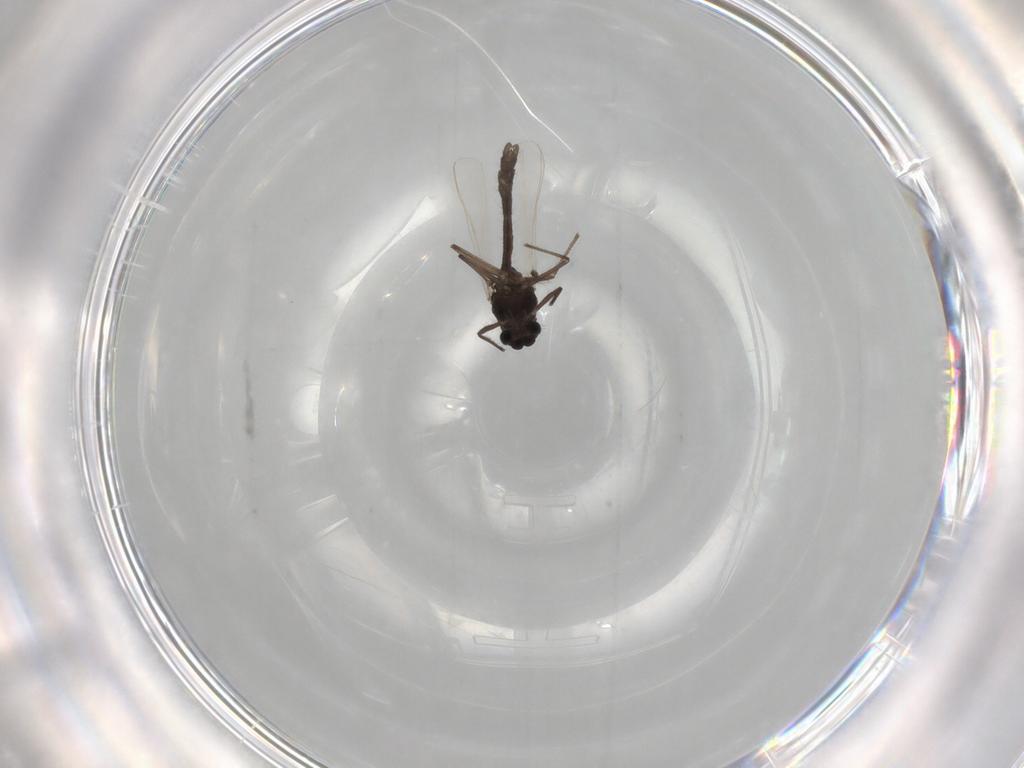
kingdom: Animalia
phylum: Arthropoda
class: Insecta
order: Diptera
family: Chironomidae
